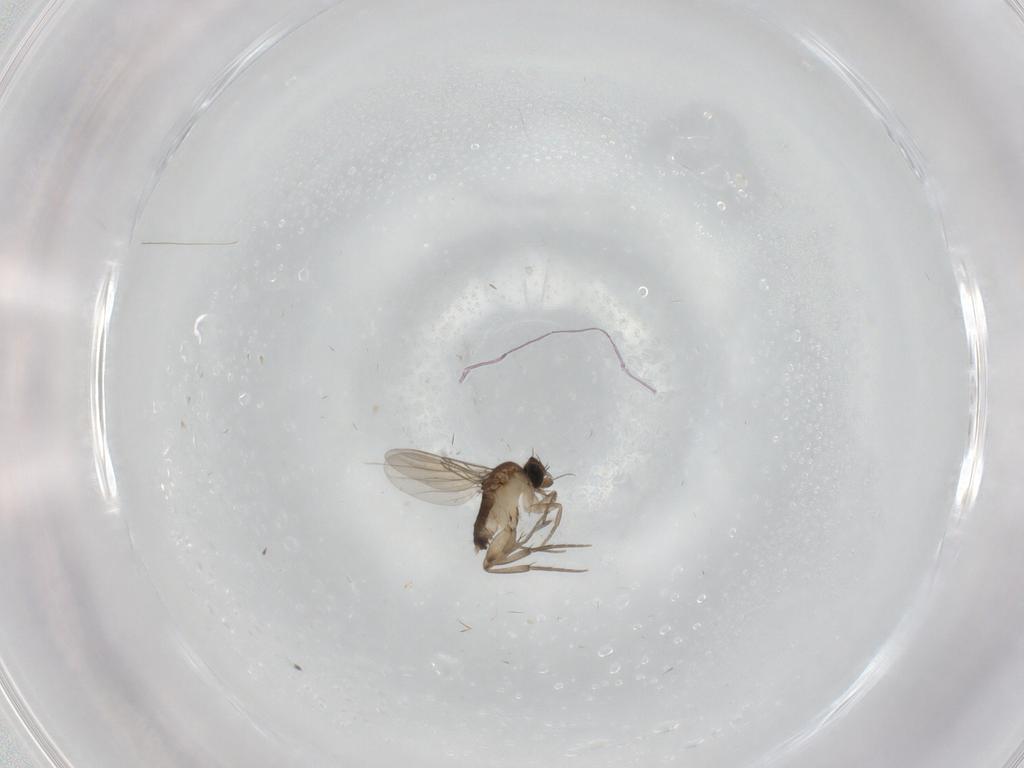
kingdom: Animalia
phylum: Arthropoda
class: Insecta
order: Diptera
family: Phoridae
